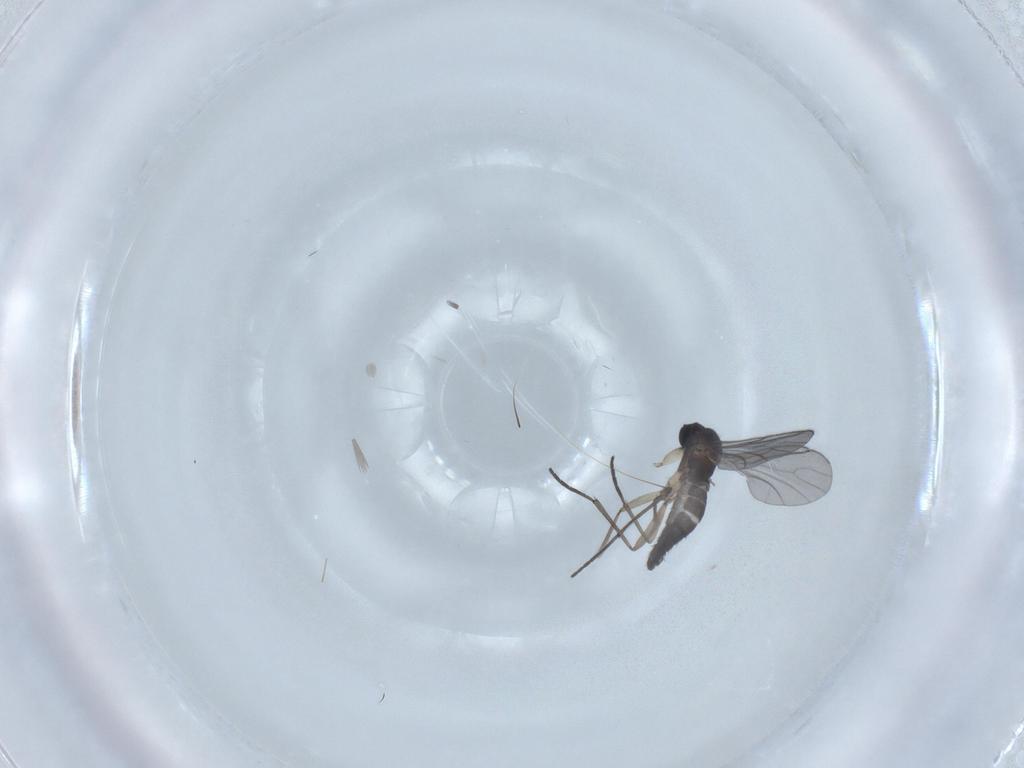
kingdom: Animalia
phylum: Arthropoda
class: Insecta
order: Diptera
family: Sciaridae
